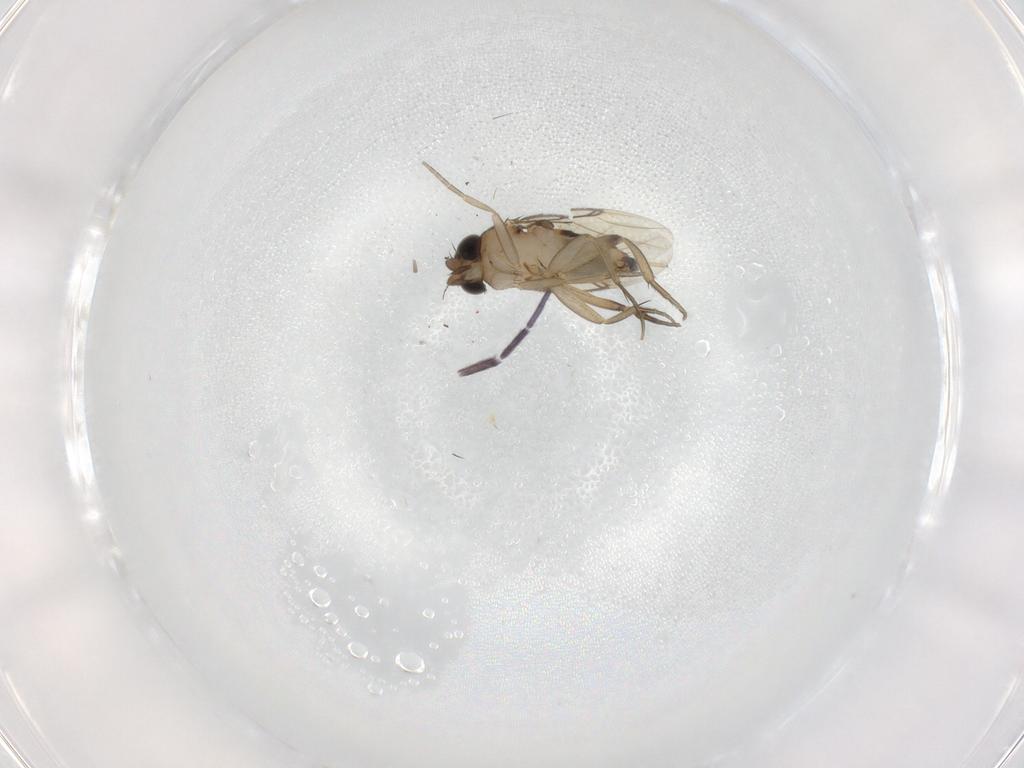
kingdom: Animalia
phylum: Arthropoda
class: Insecta
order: Diptera
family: Phoridae
